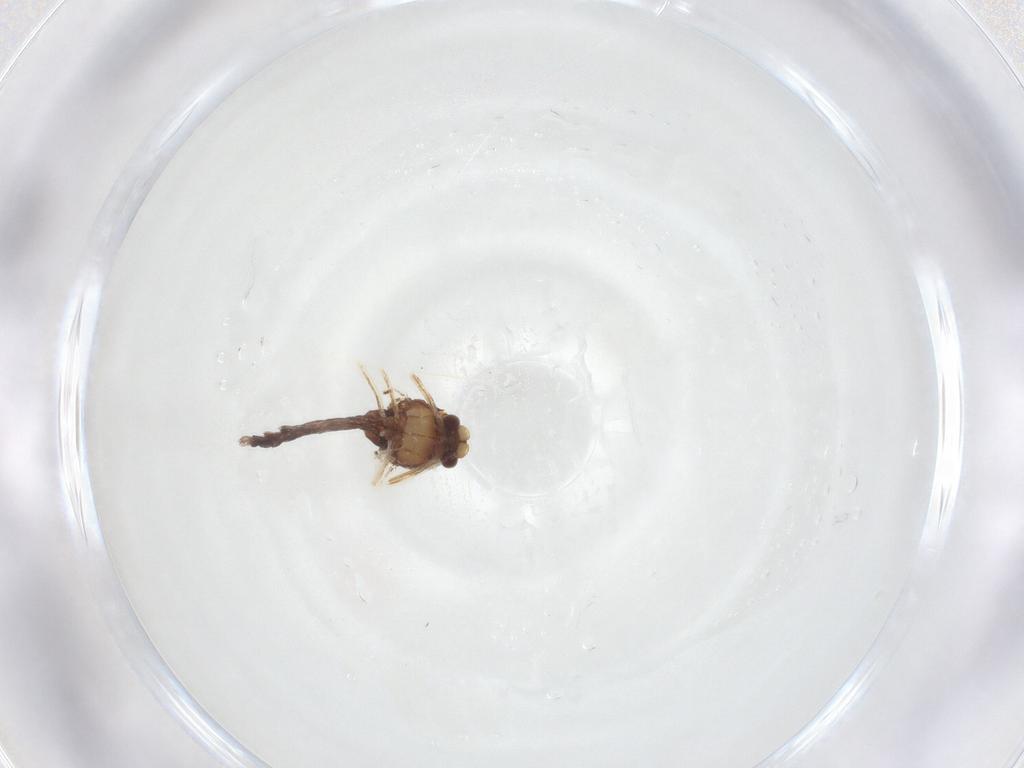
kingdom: Animalia
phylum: Arthropoda
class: Insecta
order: Diptera
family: Chironomidae
